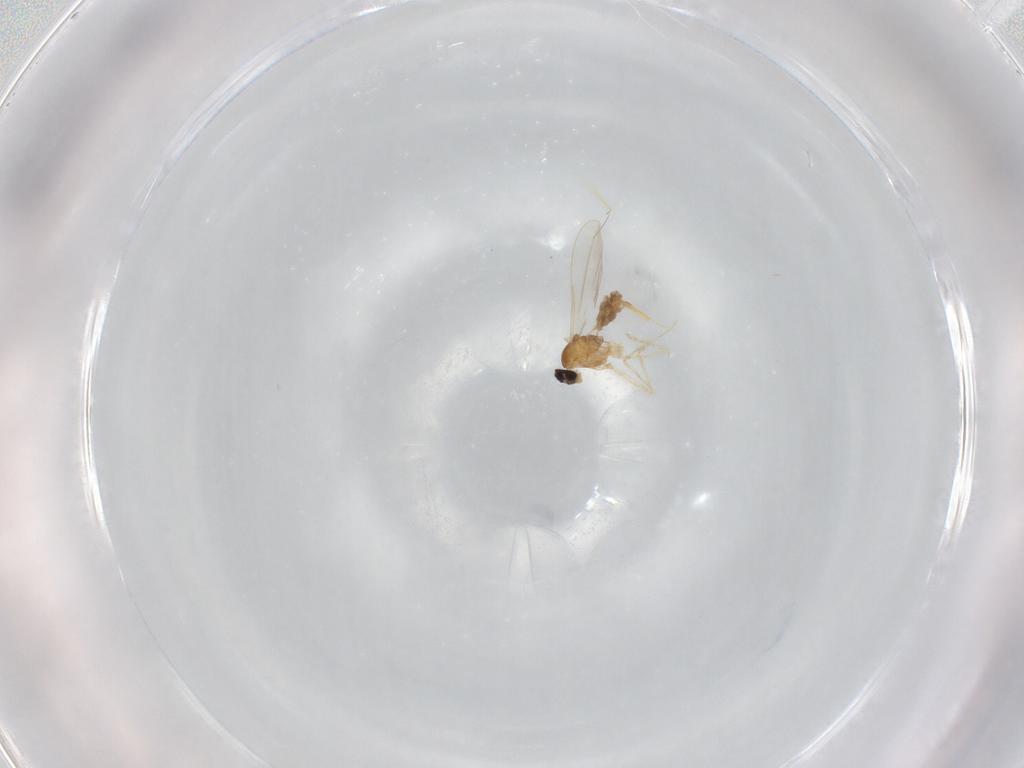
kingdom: Animalia
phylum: Arthropoda
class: Insecta
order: Diptera
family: Cecidomyiidae
